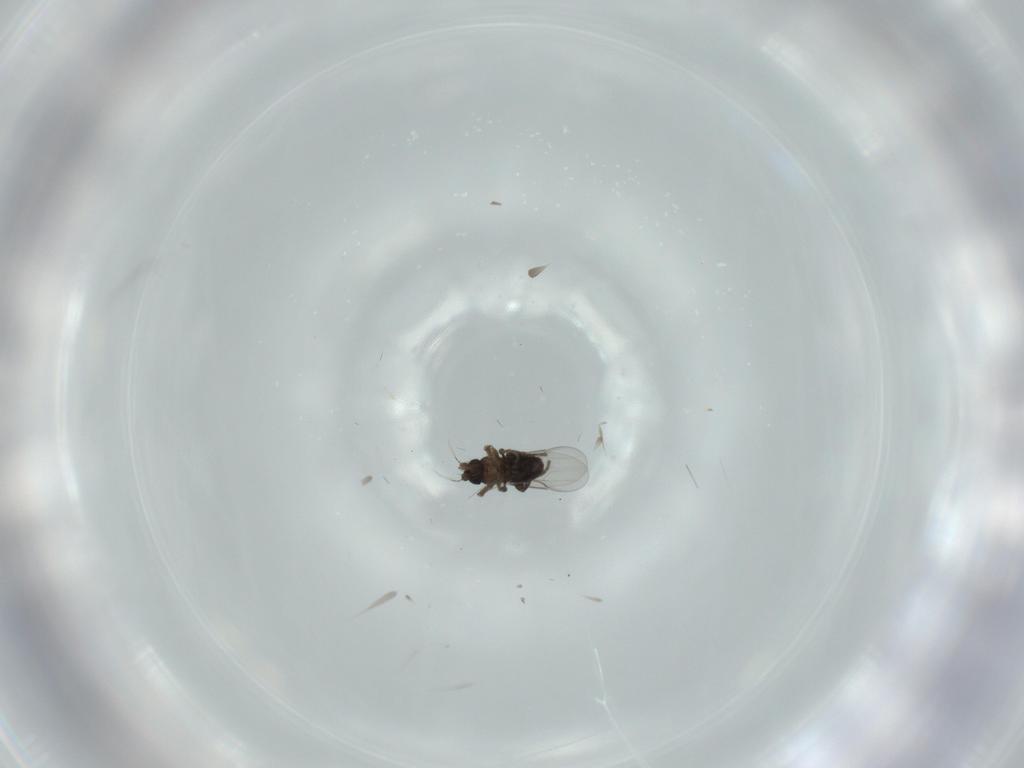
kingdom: Animalia
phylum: Arthropoda
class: Insecta
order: Diptera
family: Phoridae
